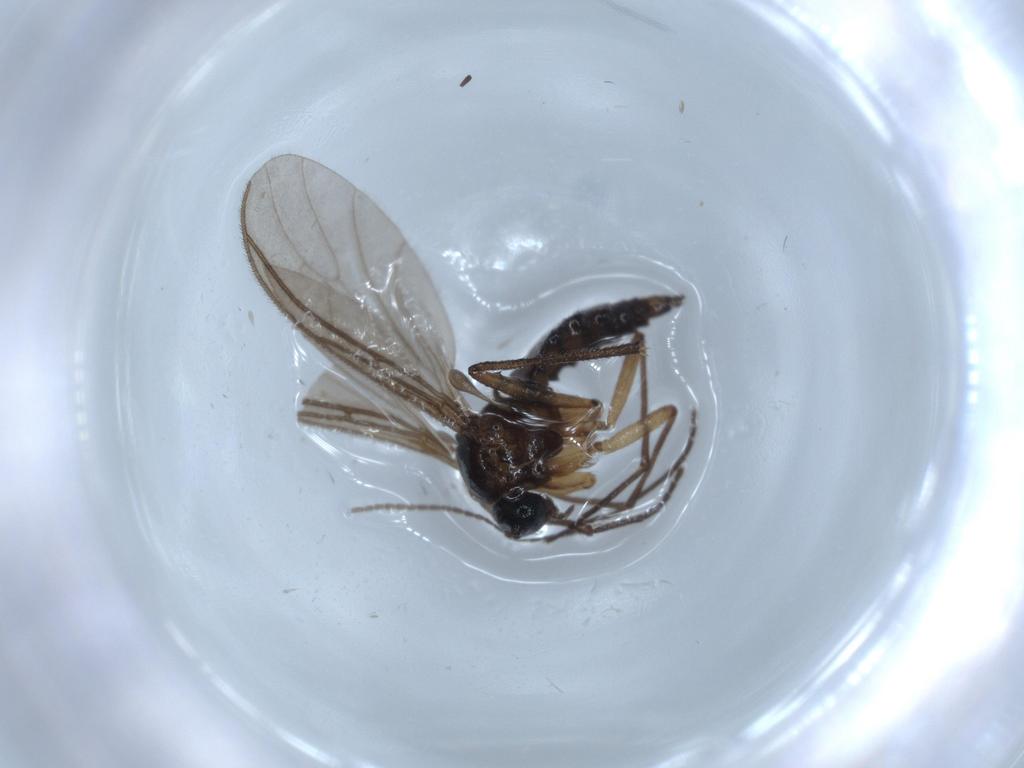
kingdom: Animalia
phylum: Arthropoda
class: Insecta
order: Diptera
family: Sciaridae
